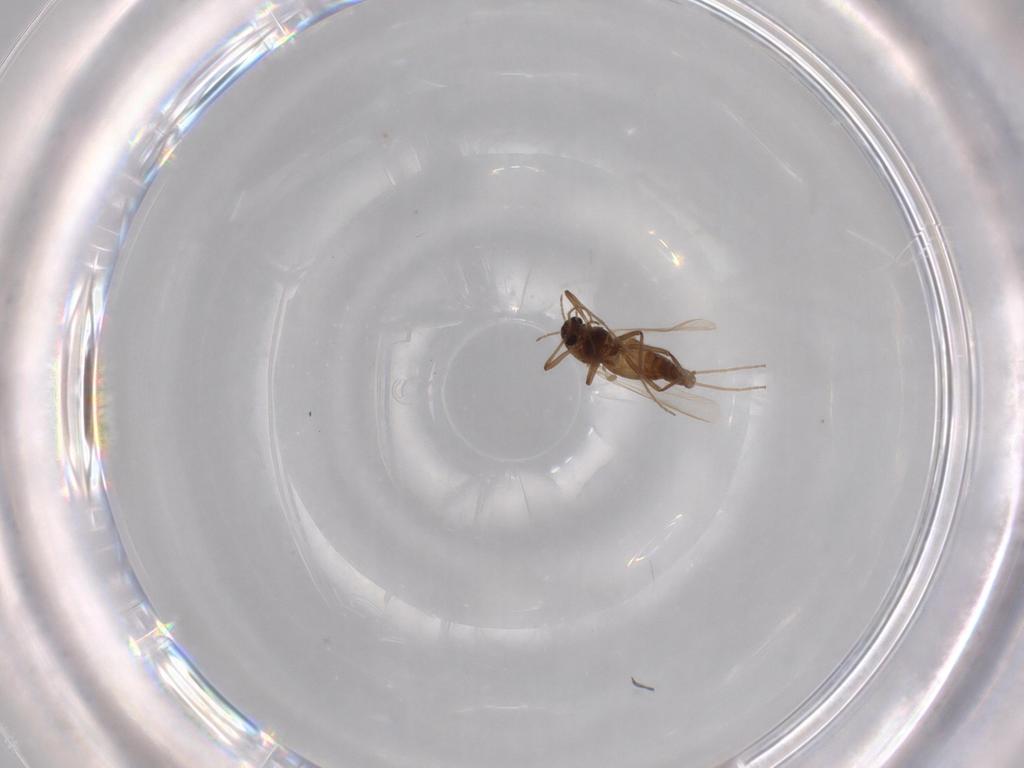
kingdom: Animalia
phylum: Arthropoda
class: Insecta
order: Diptera
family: Chironomidae
